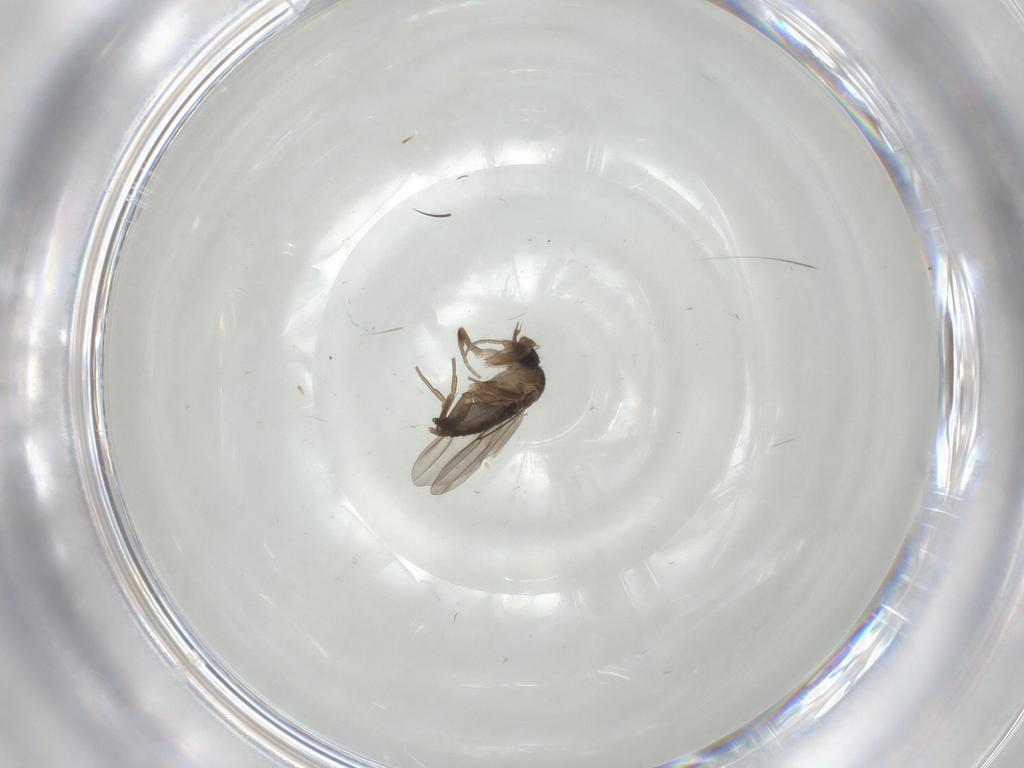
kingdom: Animalia
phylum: Arthropoda
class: Insecta
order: Diptera
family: Phoridae
